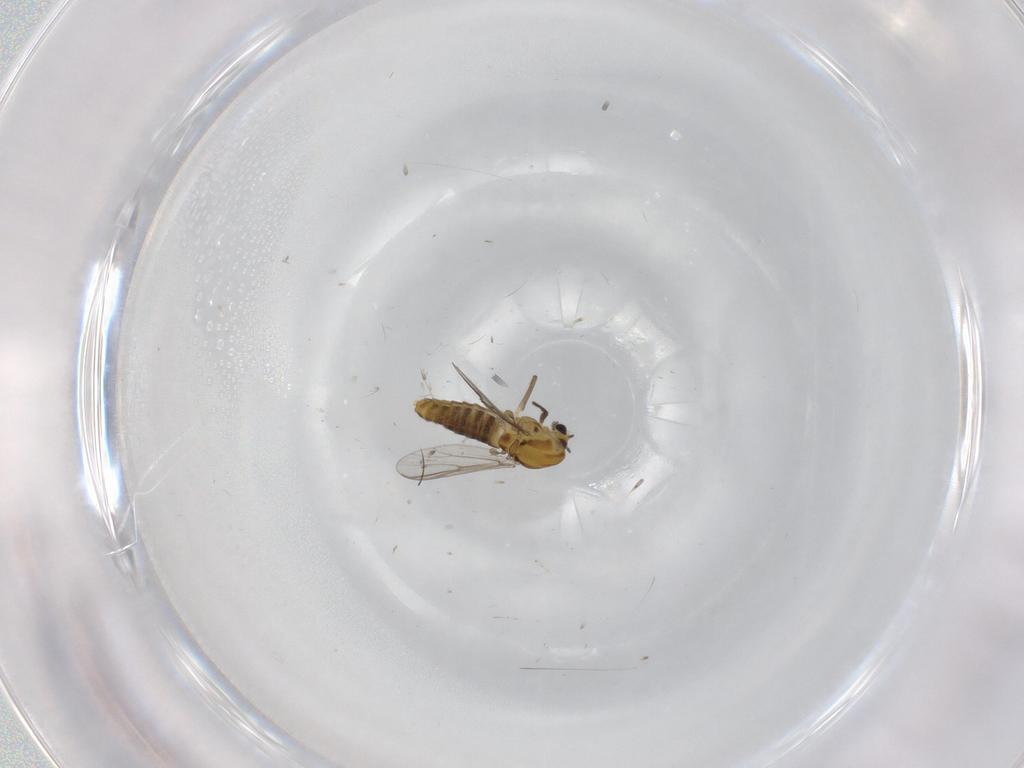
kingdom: Animalia
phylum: Arthropoda
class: Insecta
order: Diptera
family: Chironomidae
